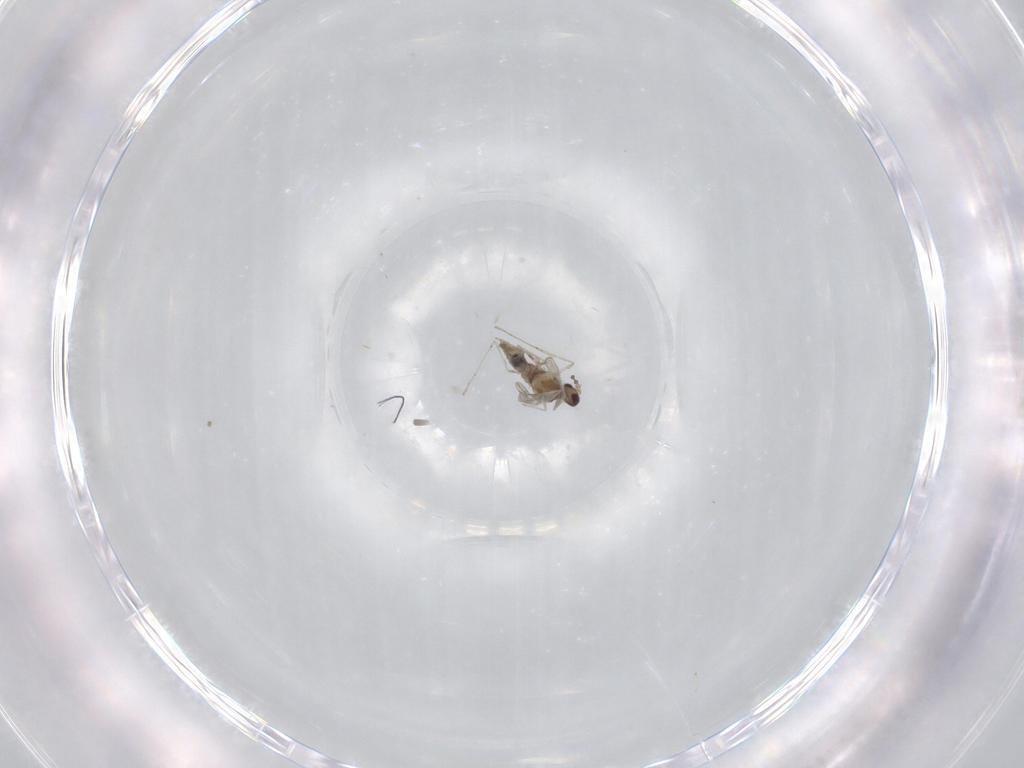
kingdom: Animalia
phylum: Arthropoda
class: Insecta
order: Diptera
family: Cecidomyiidae
